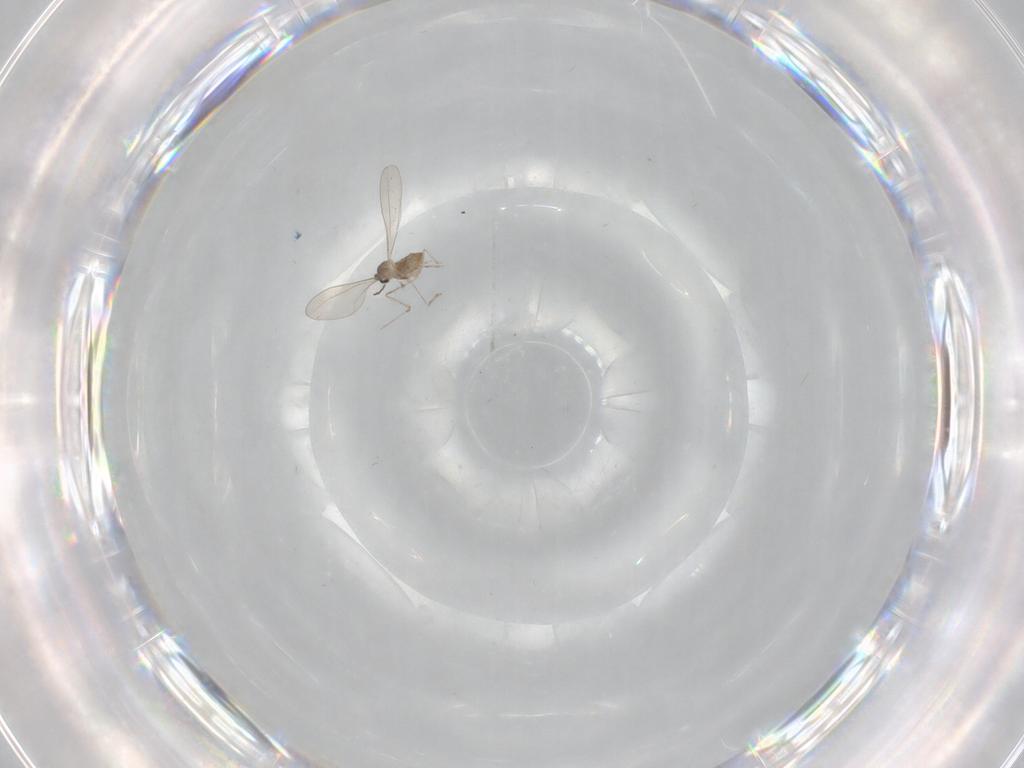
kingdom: Animalia
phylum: Arthropoda
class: Insecta
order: Diptera
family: Cecidomyiidae
